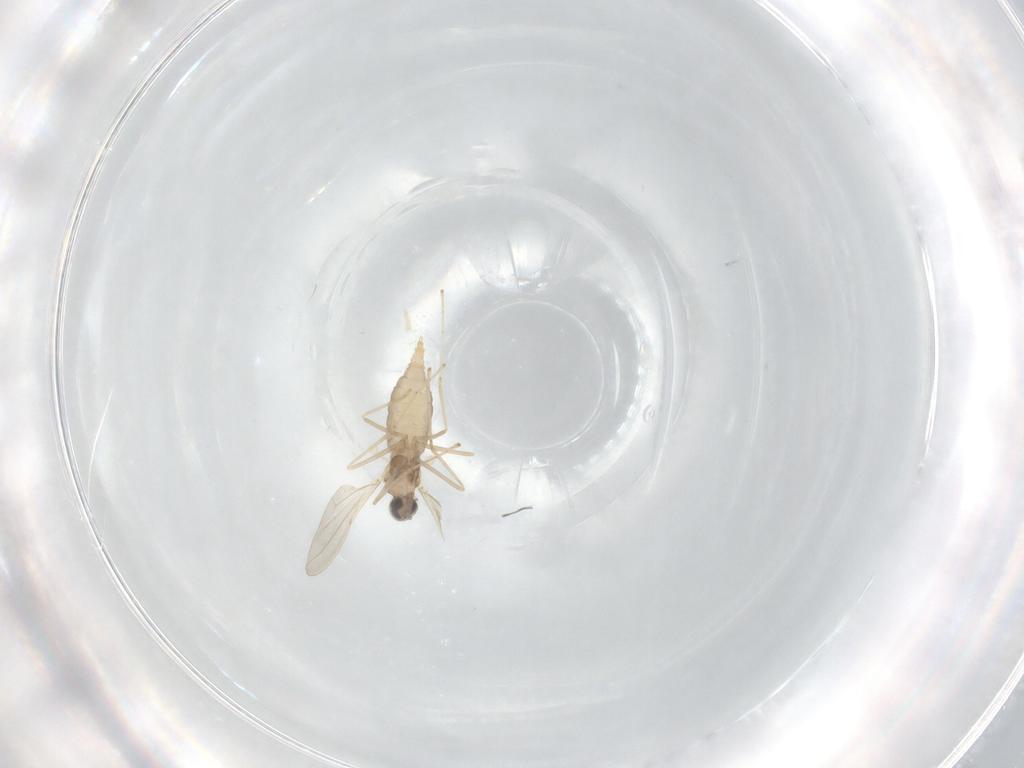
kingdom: Animalia
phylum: Arthropoda
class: Insecta
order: Diptera
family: Cecidomyiidae
